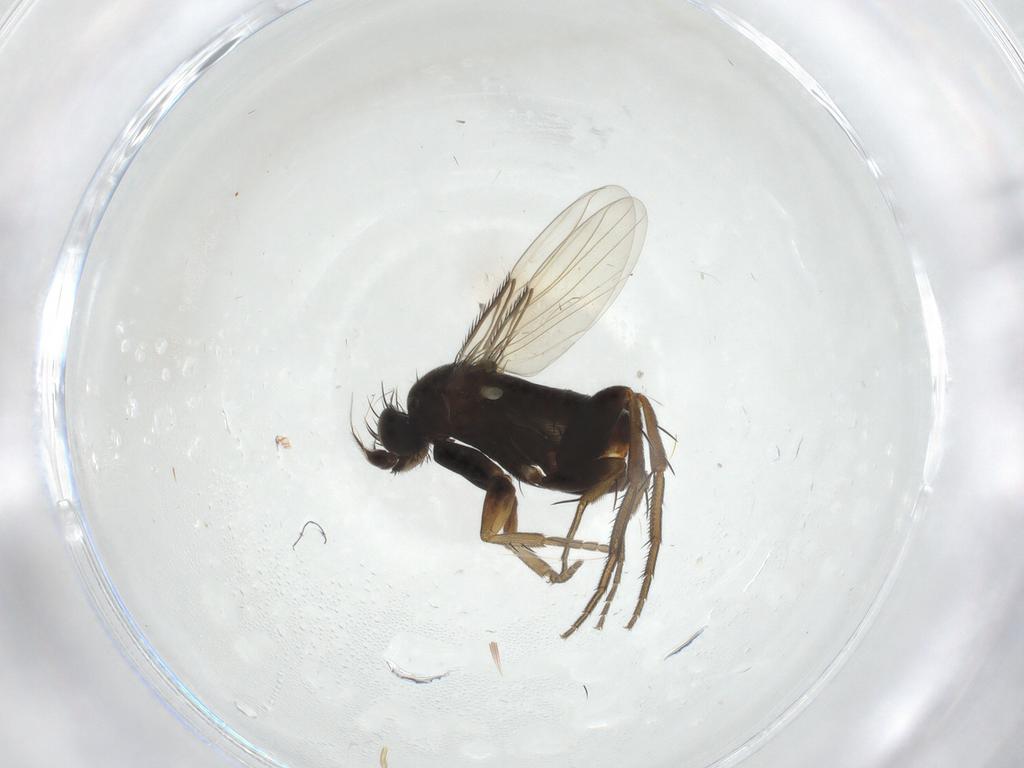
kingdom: Animalia
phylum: Arthropoda
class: Insecta
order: Diptera
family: Phoridae
